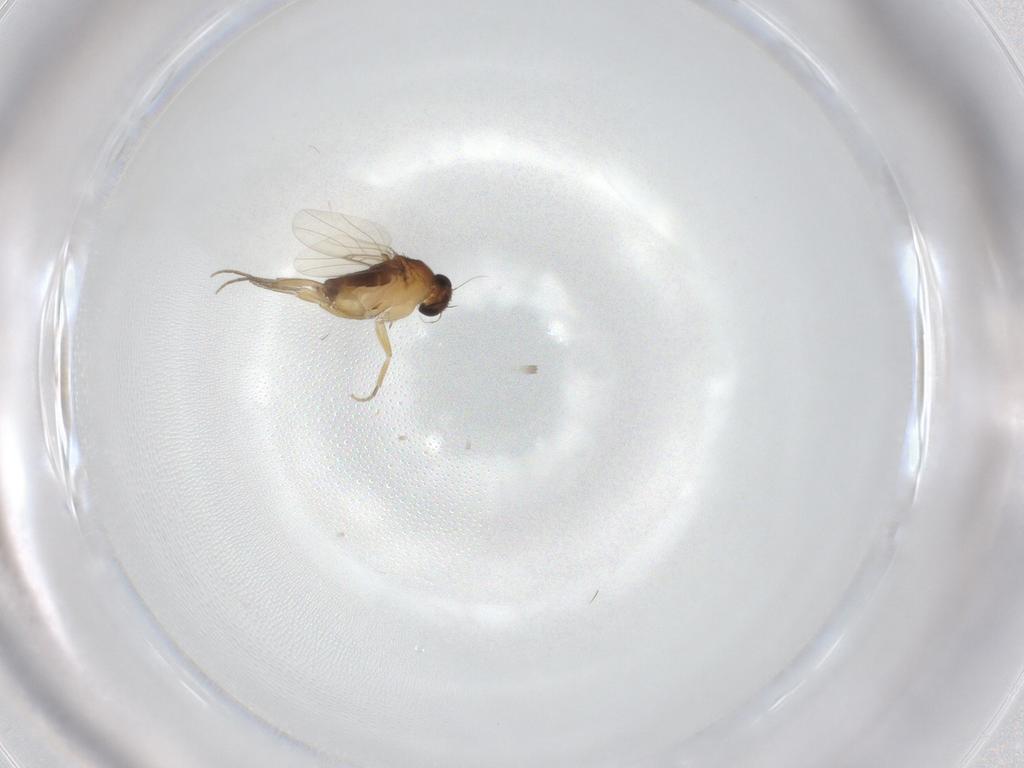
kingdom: Animalia
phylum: Arthropoda
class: Insecta
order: Diptera
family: Phoridae
